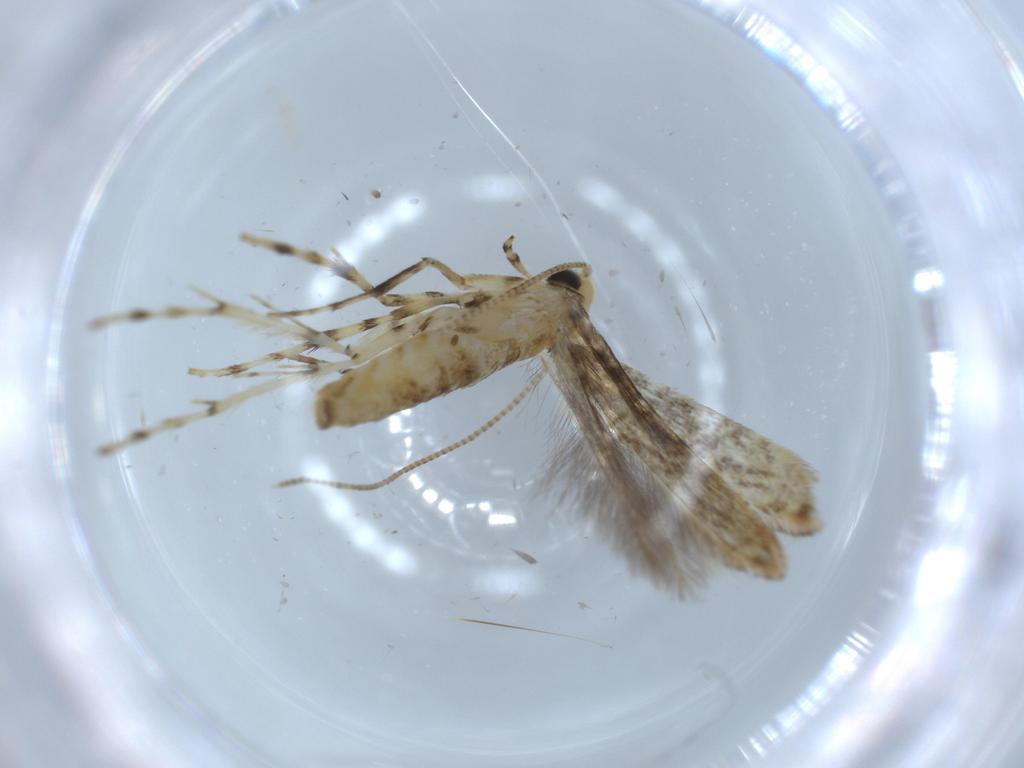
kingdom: Animalia
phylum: Arthropoda
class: Insecta
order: Lepidoptera
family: Gracillariidae
